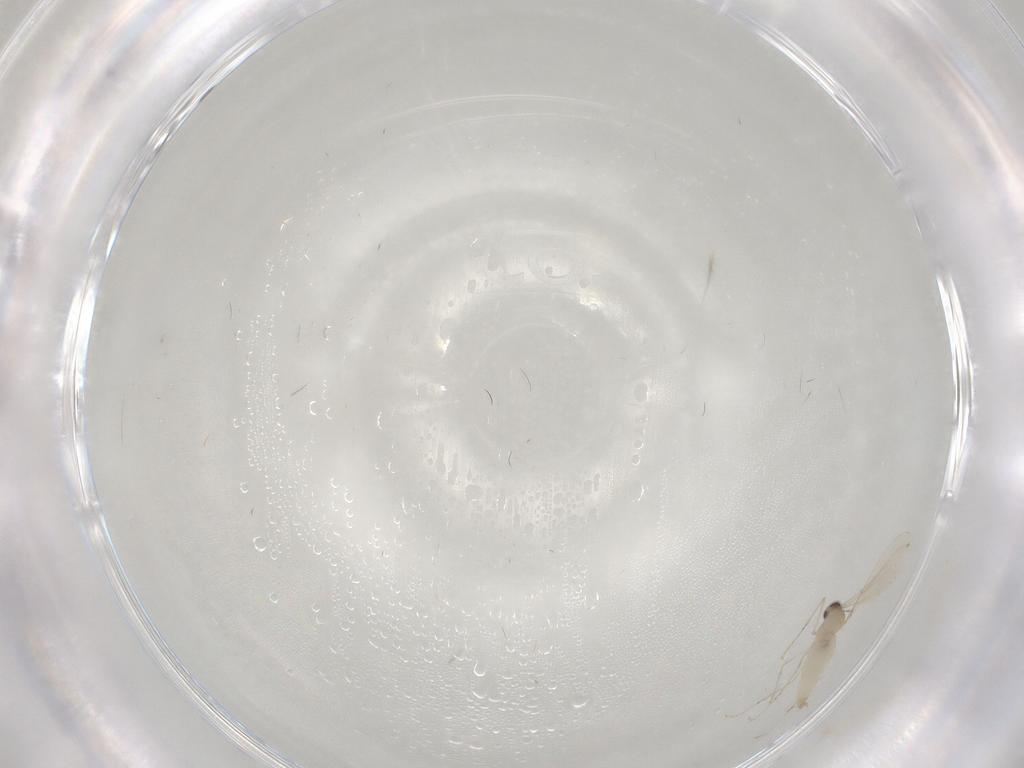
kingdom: Animalia
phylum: Arthropoda
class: Insecta
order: Diptera
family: Cecidomyiidae
